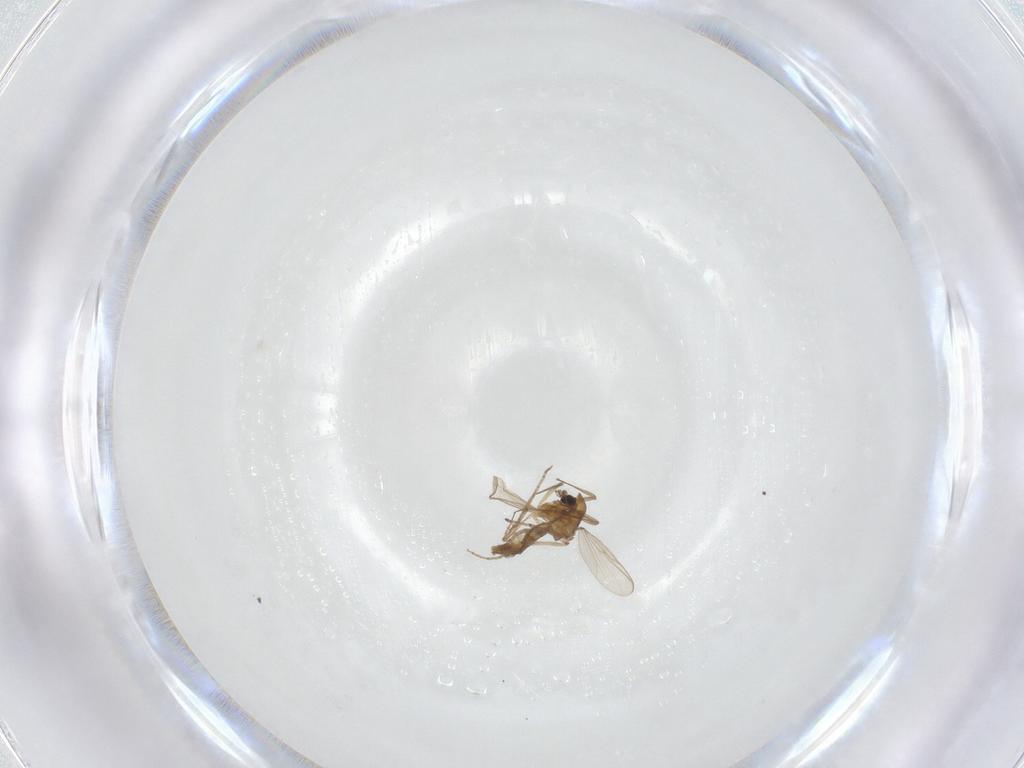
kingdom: Animalia
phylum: Arthropoda
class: Insecta
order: Diptera
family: Chironomidae
